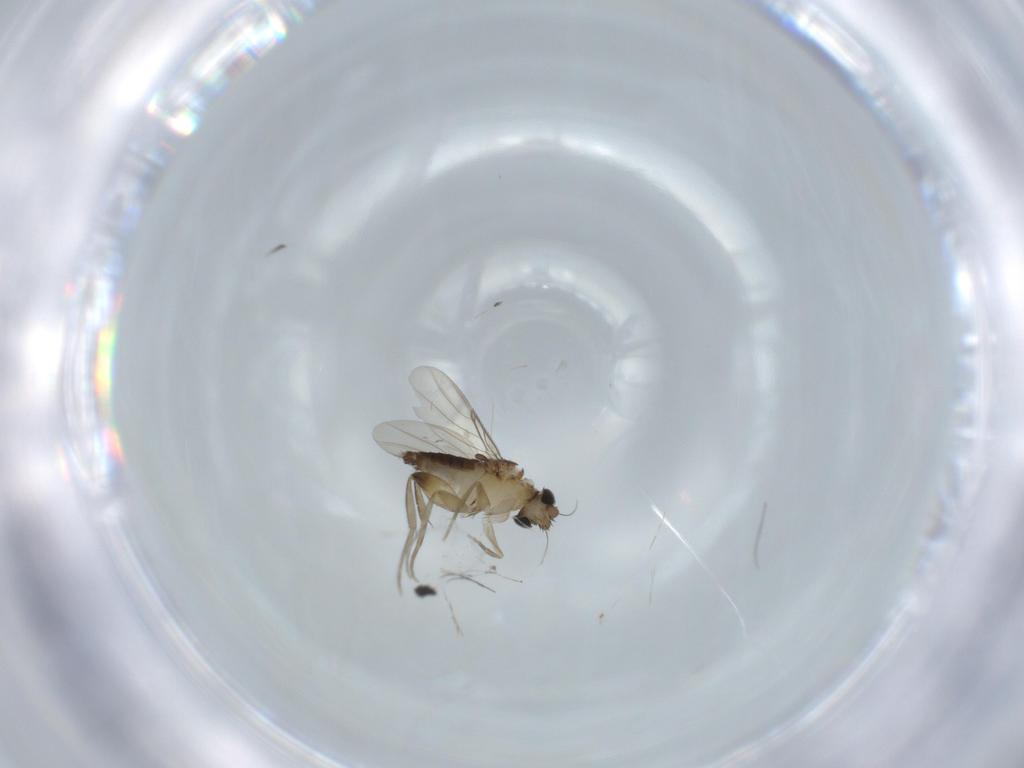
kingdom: Animalia
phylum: Arthropoda
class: Insecta
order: Diptera
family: Phoridae
